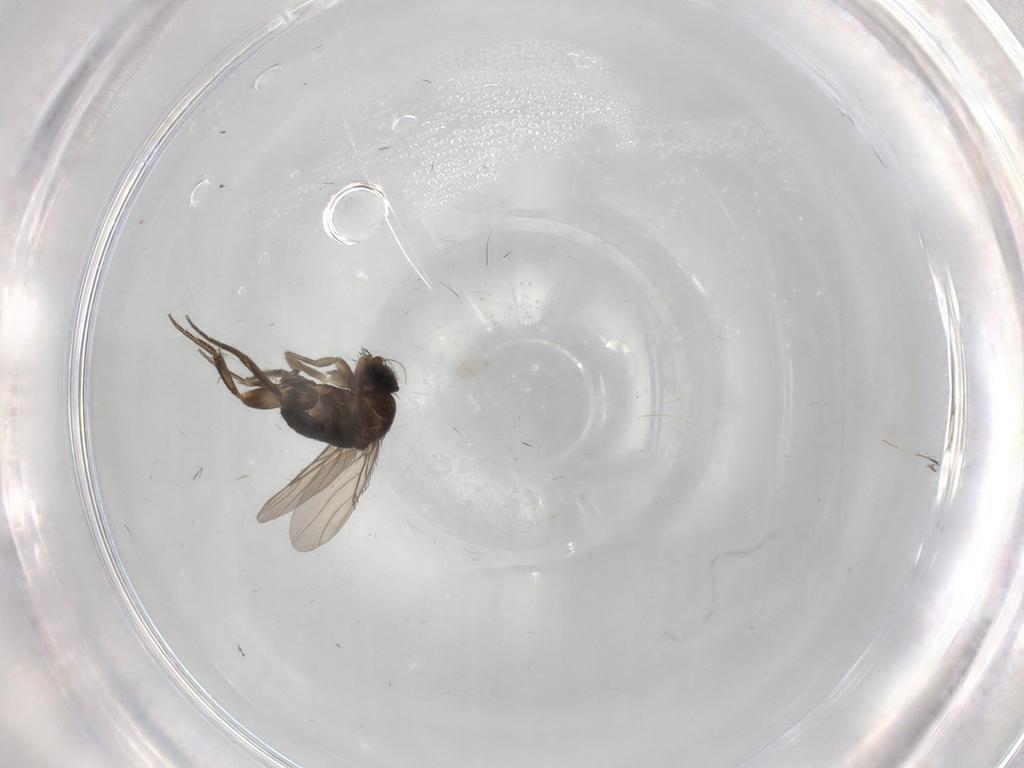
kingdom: Animalia
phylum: Arthropoda
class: Insecta
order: Diptera
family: Phoridae
